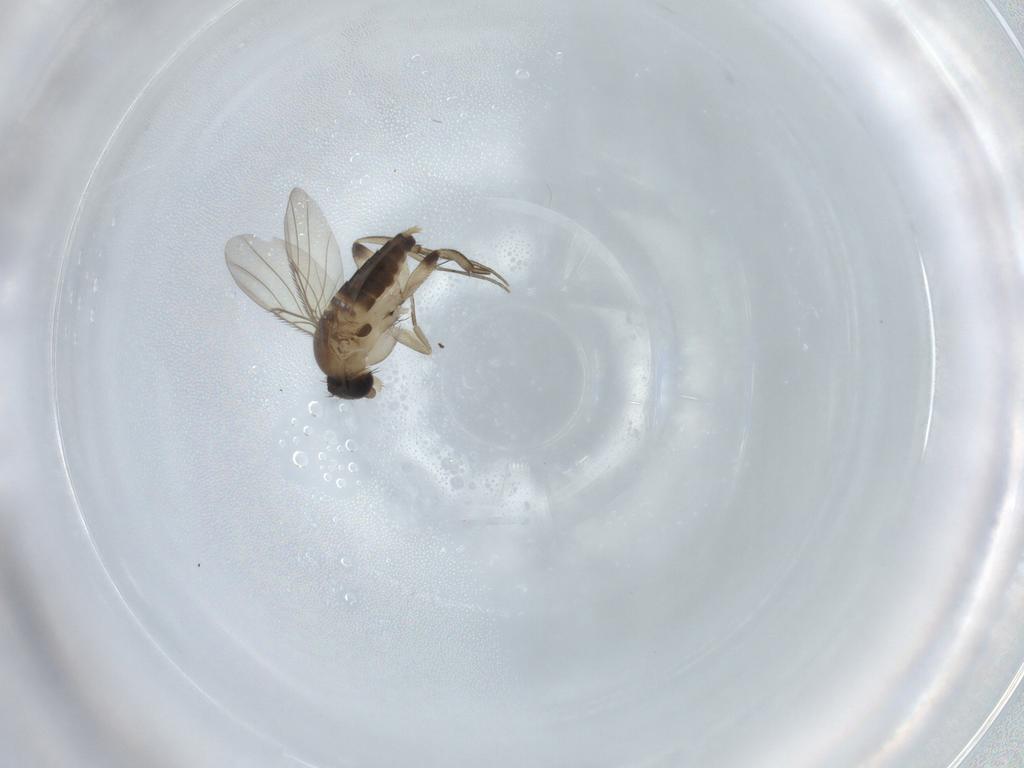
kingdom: Animalia
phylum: Arthropoda
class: Insecta
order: Diptera
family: Phoridae
